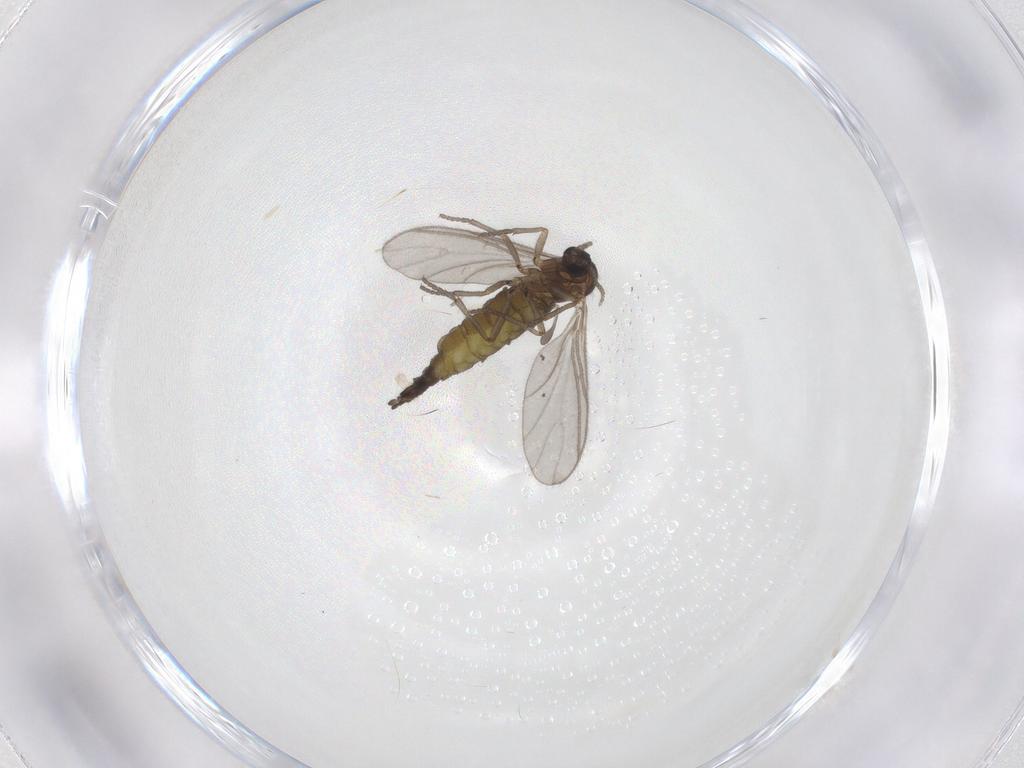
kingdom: Animalia
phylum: Arthropoda
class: Insecta
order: Diptera
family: Sciaridae
